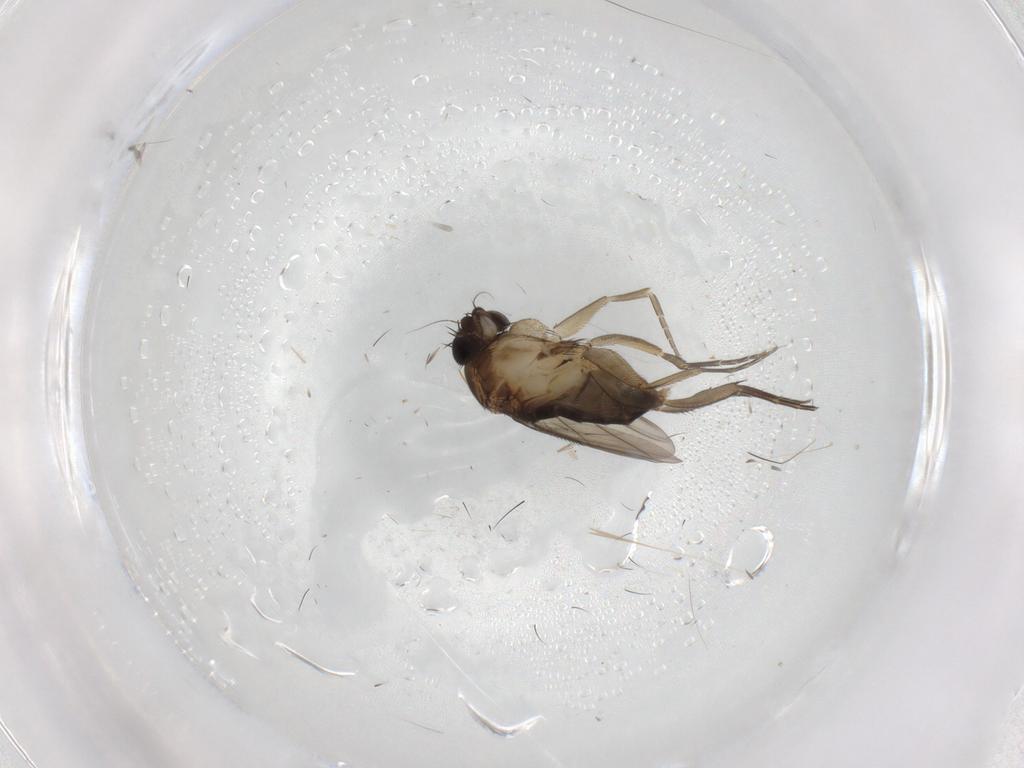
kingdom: Animalia
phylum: Arthropoda
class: Insecta
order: Diptera
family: Phoridae
